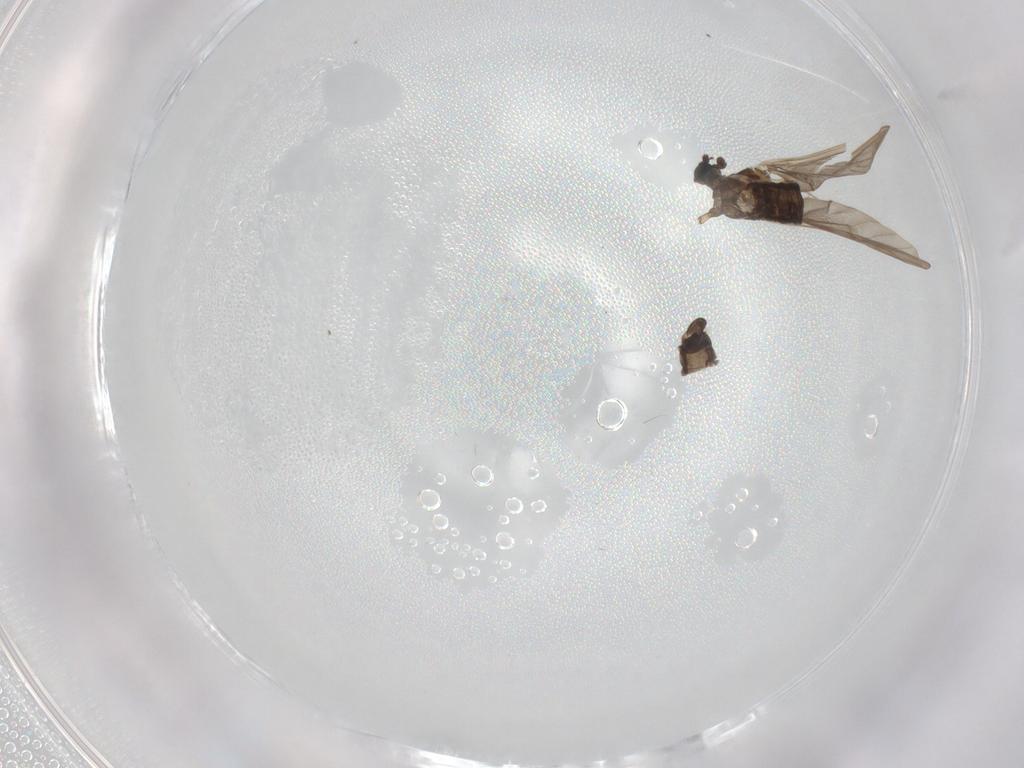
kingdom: Animalia
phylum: Arthropoda
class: Insecta
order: Diptera
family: Limoniidae
